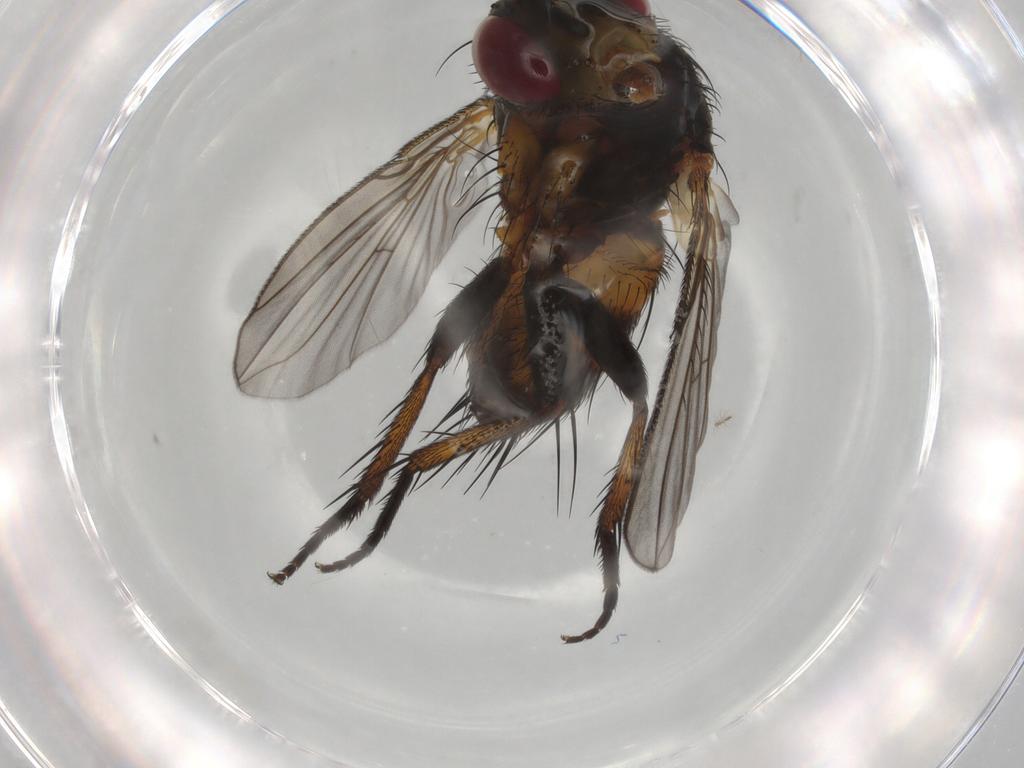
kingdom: Animalia
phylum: Arthropoda
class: Insecta
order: Diptera
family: Tachinidae
